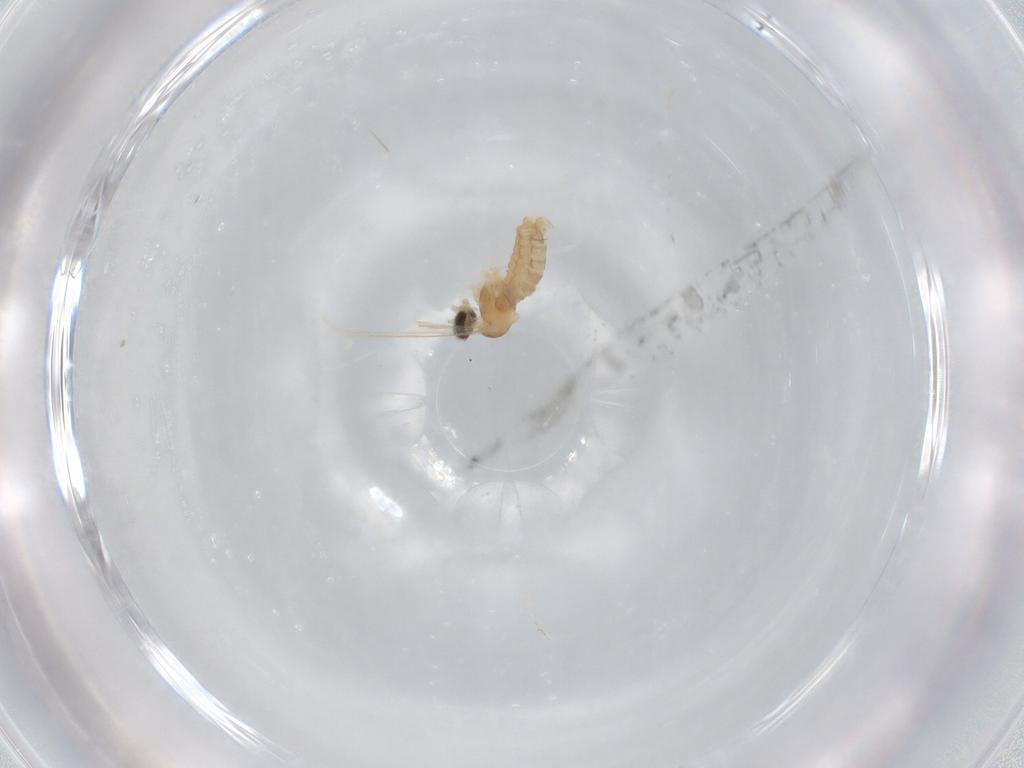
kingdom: Animalia
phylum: Arthropoda
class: Insecta
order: Diptera
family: Cecidomyiidae
